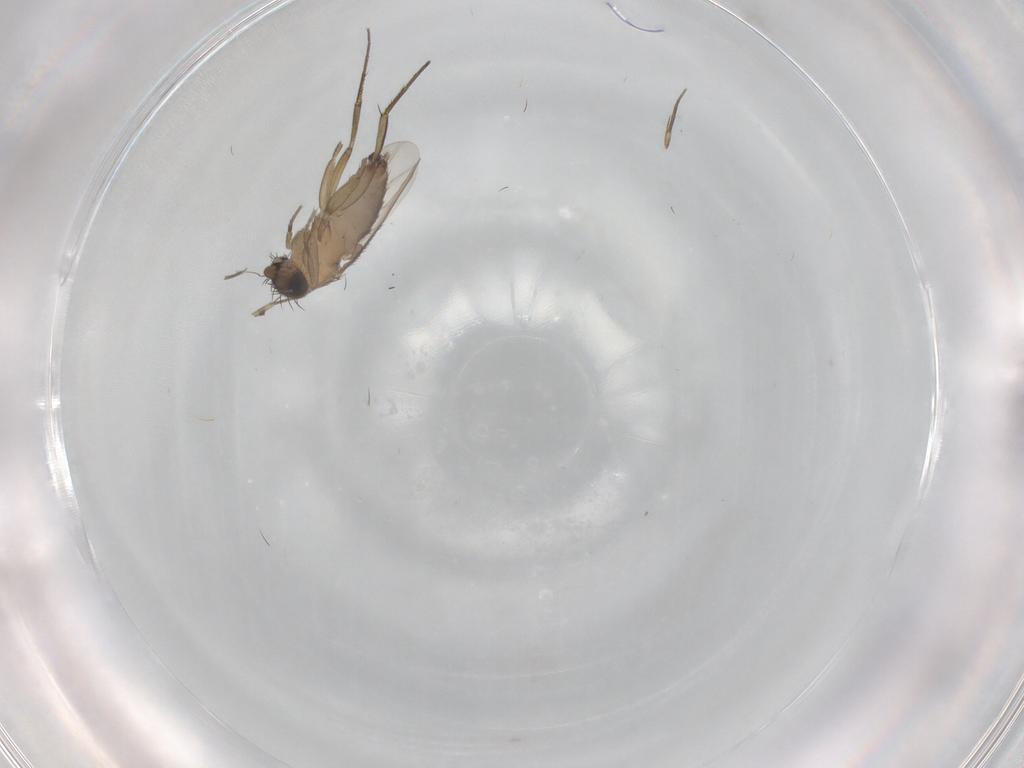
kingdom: Animalia
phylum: Arthropoda
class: Insecta
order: Diptera
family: Phoridae
